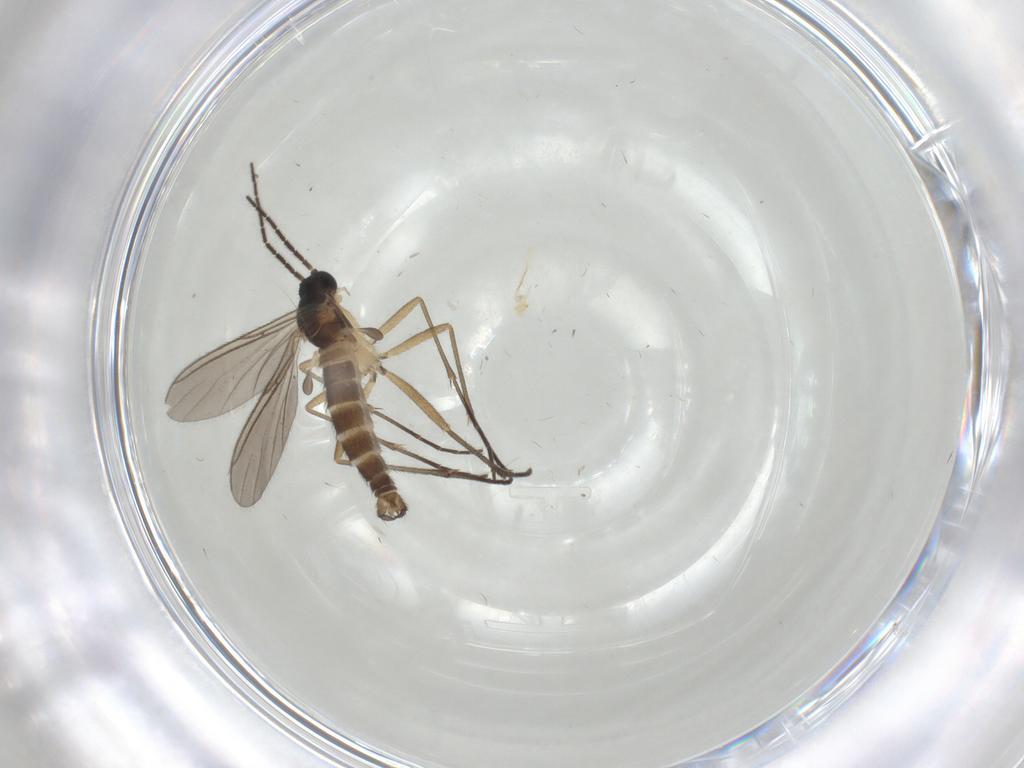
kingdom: Animalia
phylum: Arthropoda
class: Insecta
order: Diptera
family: Sciaridae
